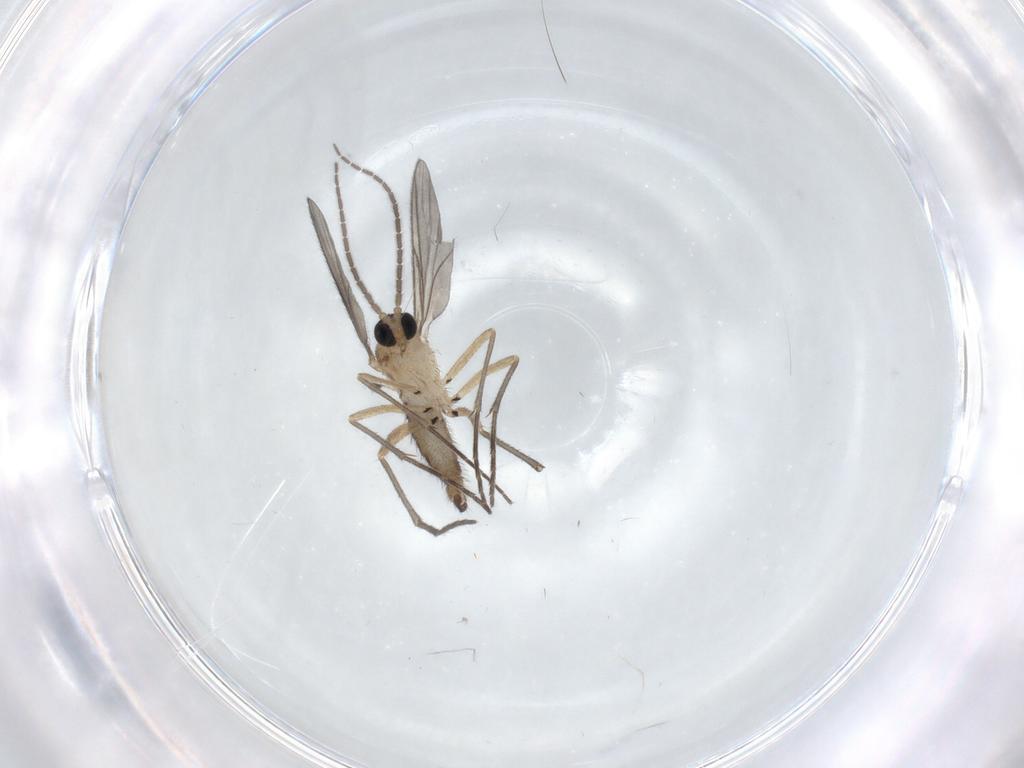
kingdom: Animalia
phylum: Arthropoda
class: Insecta
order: Diptera
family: Sciaridae
